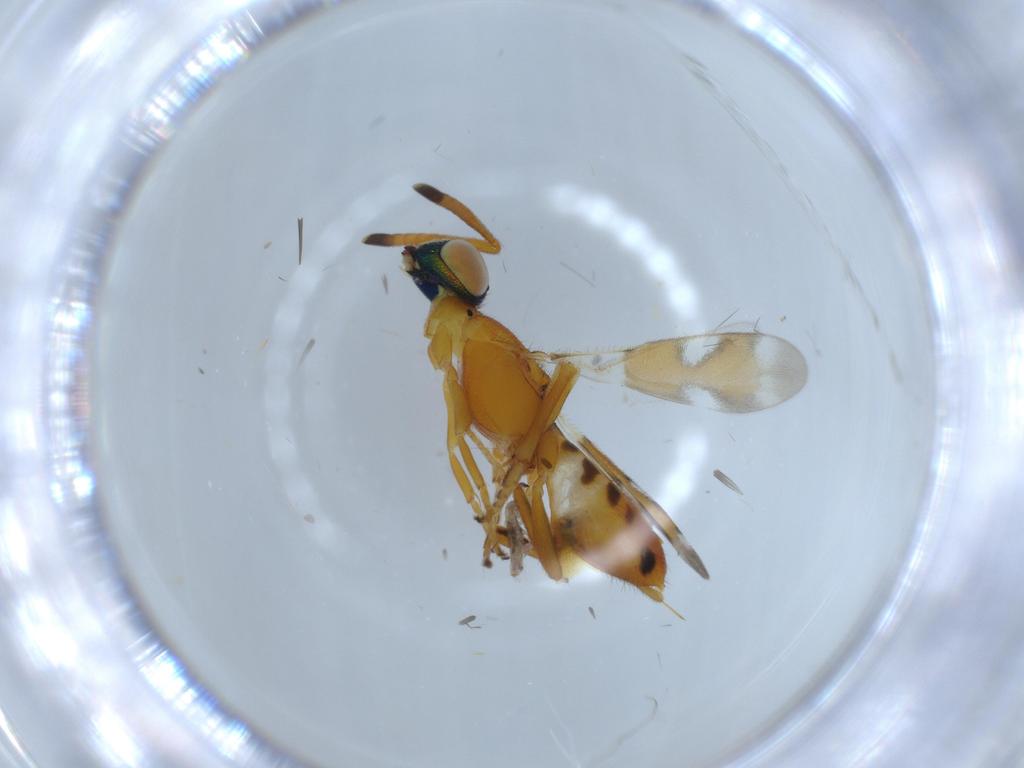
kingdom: Animalia
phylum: Arthropoda
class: Insecta
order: Hymenoptera
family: Eupelmidae
